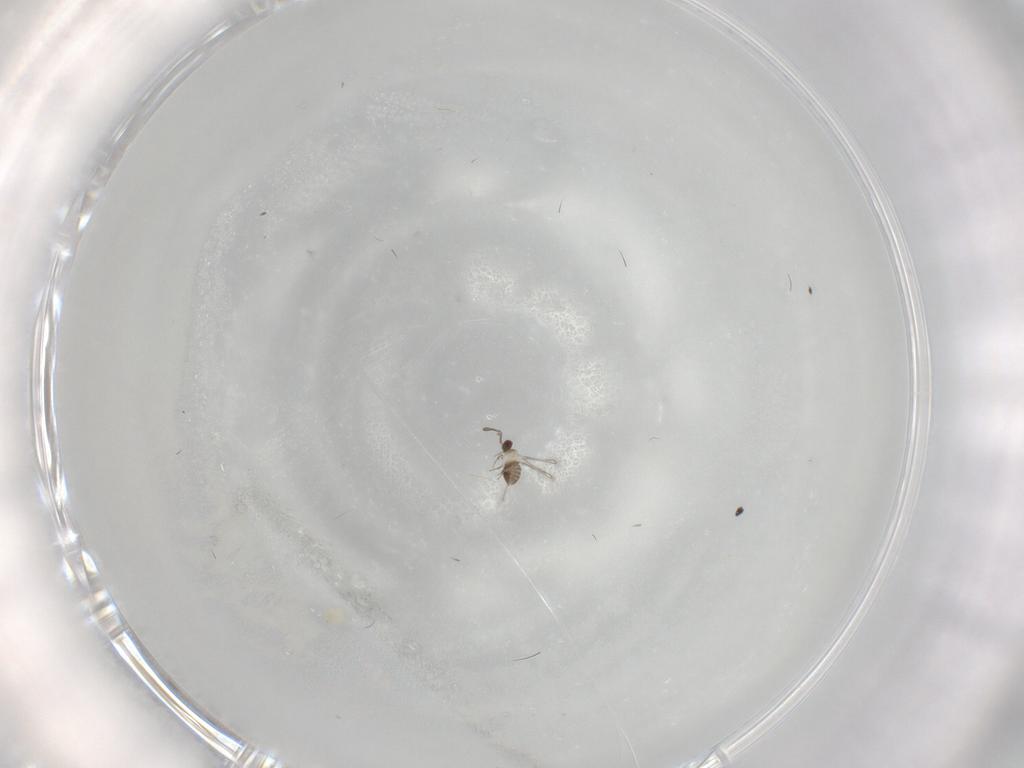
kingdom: Animalia
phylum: Arthropoda
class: Insecta
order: Hymenoptera
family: Mymaridae
